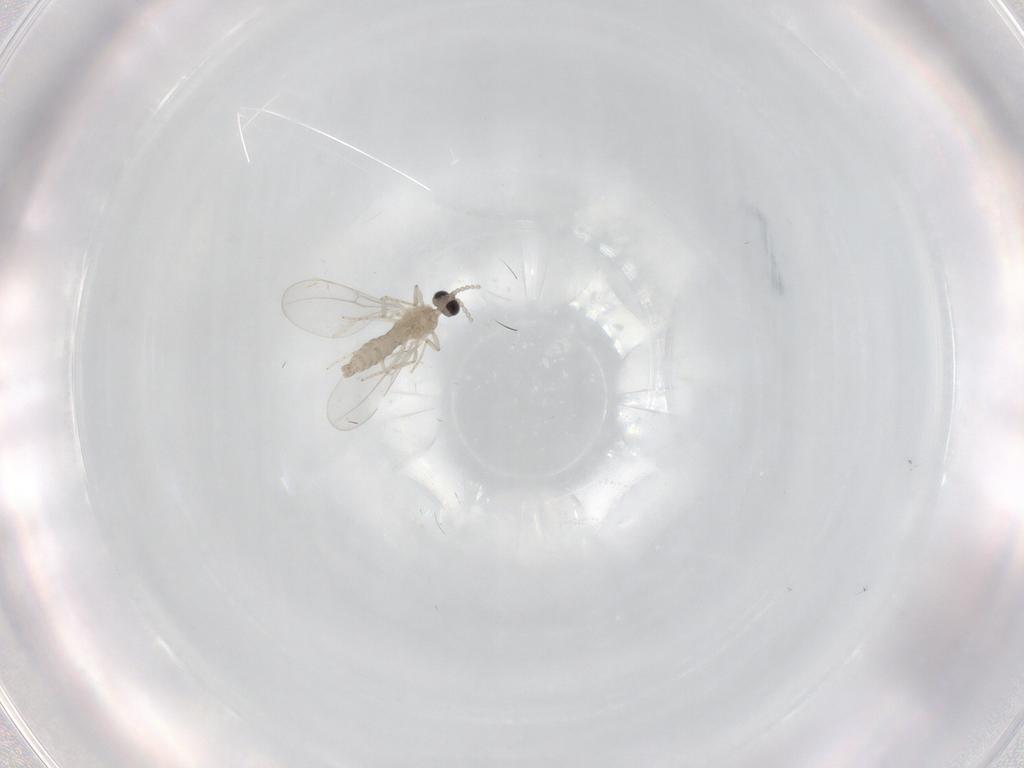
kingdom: Animalia
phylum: Arthropoda
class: Insecta
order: Diptera
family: Cecidomyiidae
